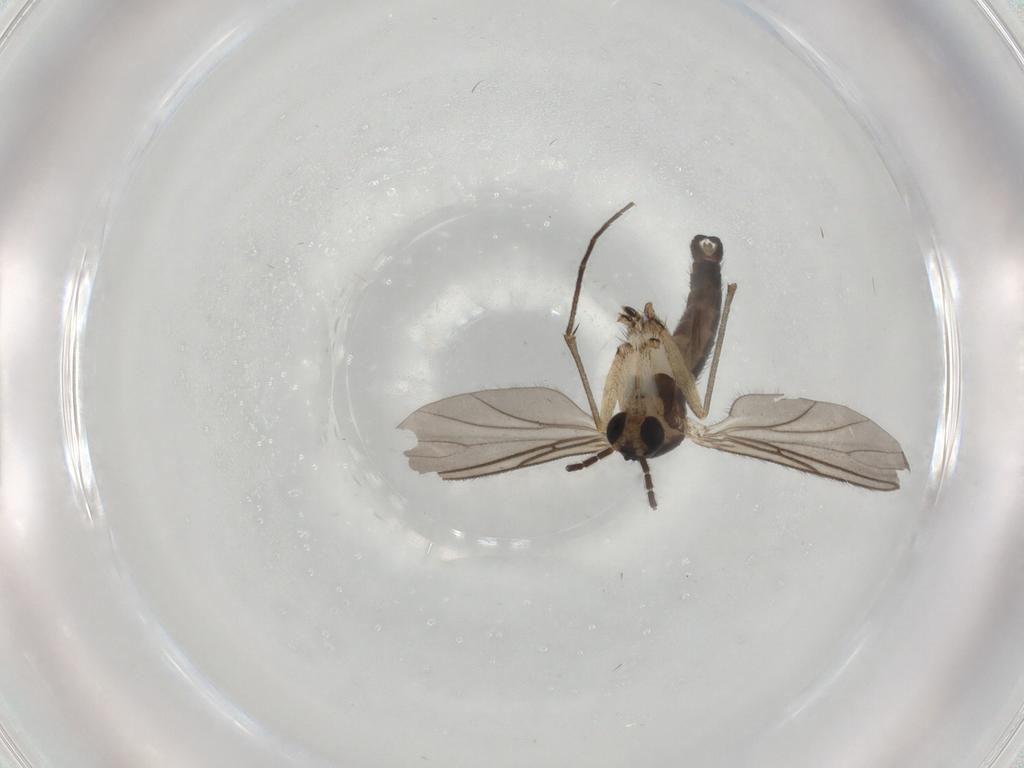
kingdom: Animalia
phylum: Arthropoda
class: Insecta
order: Diptera
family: Sciaridae
